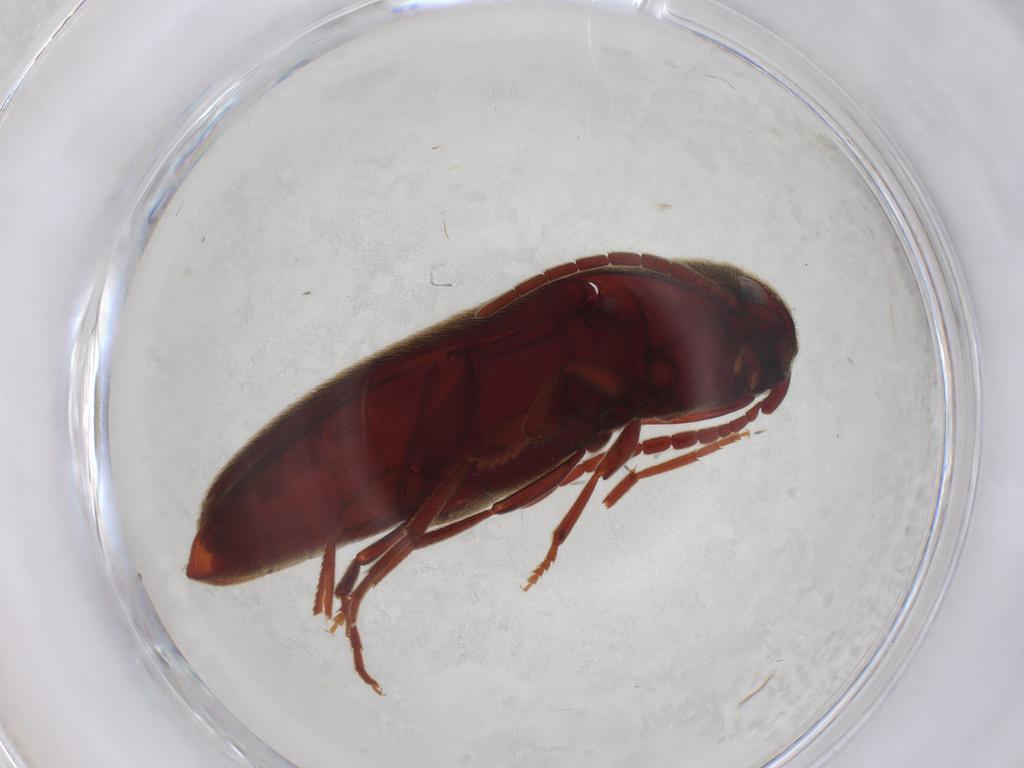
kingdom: Animalia
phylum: Arthropoda
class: Insecta
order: Coleoptera
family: Eucnemidae
